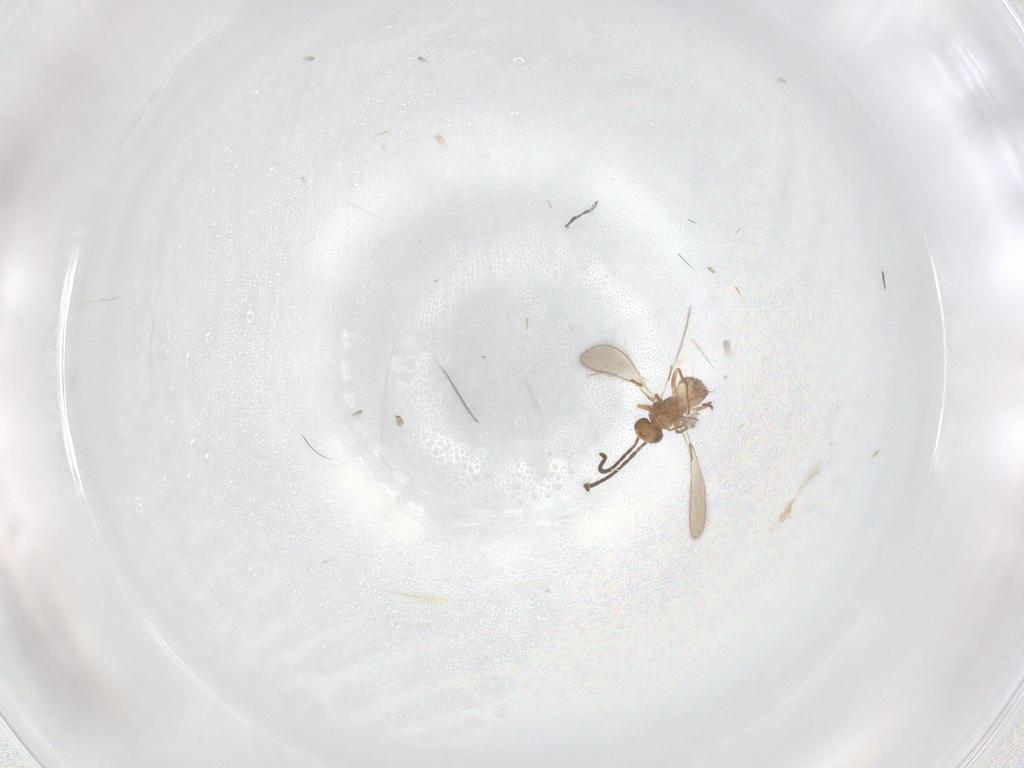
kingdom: Animalia
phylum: Arthropoda
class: Insecta
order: Hymenoptera
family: Mymaridae
